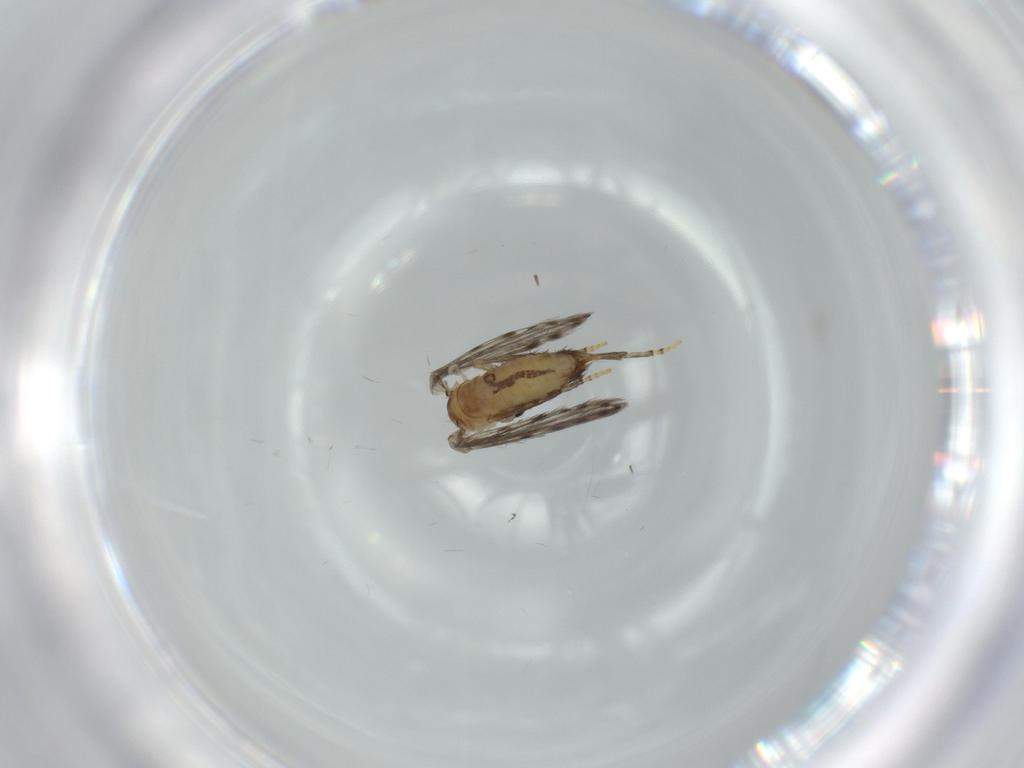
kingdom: Animalia
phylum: Arthropoda
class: Insecta
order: Diptera
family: Psychodidae
